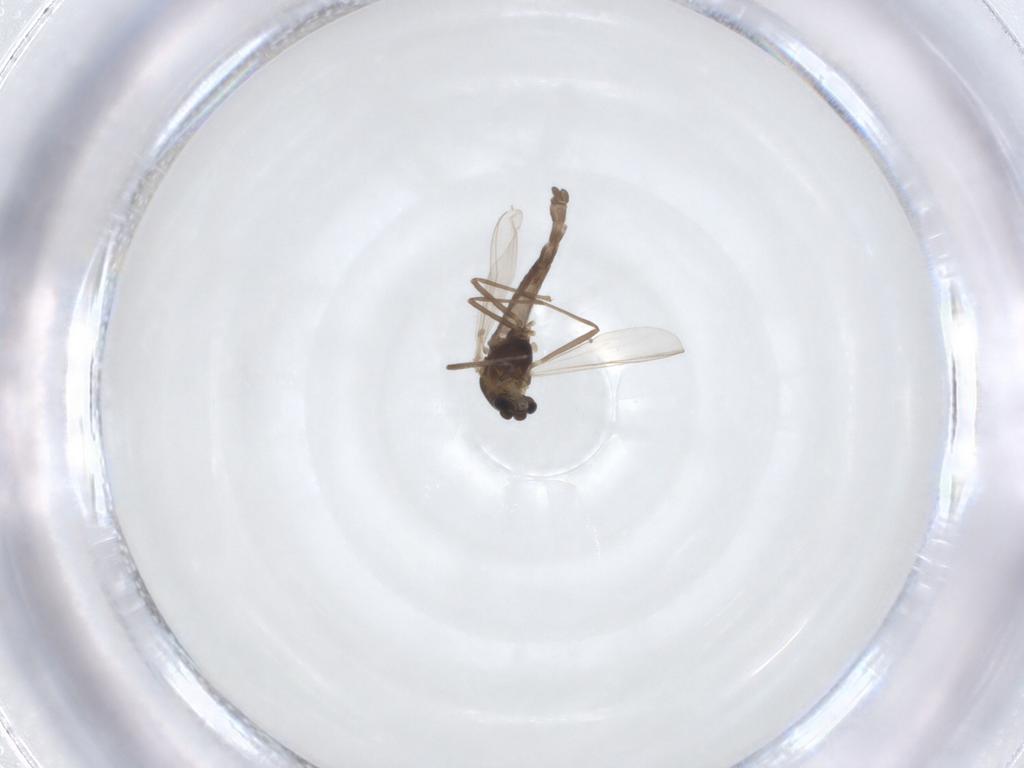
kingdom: Animalia
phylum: Arthropoda
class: Insecta
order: Diptera
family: Chironomidae
